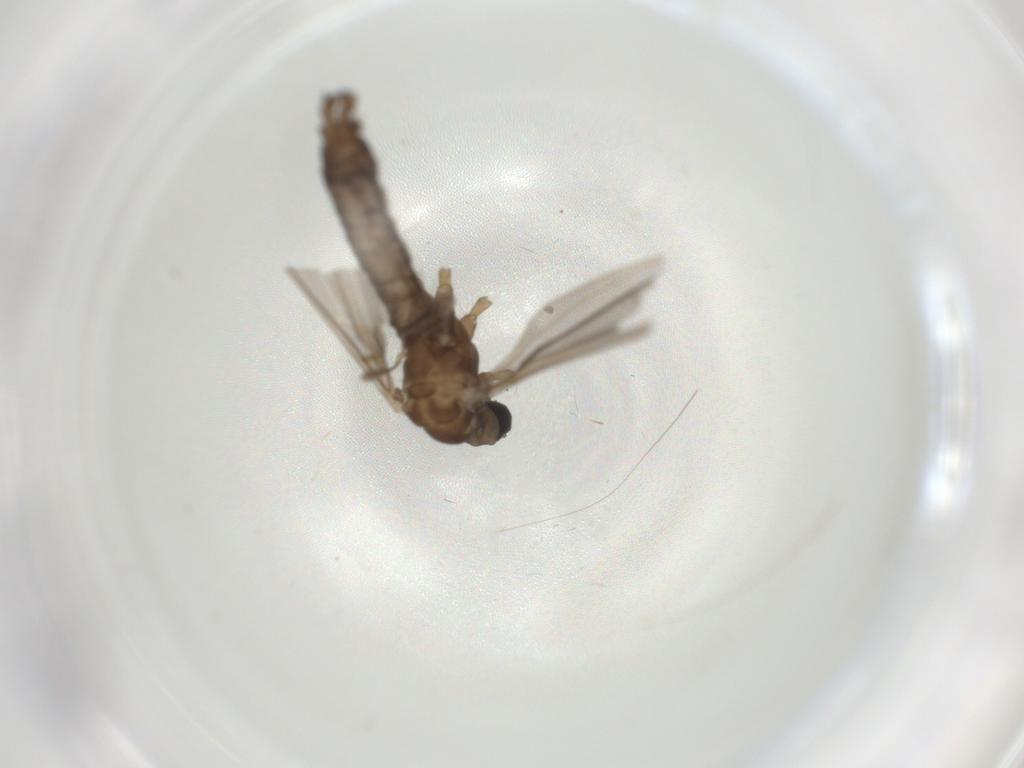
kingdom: Animalia
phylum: Arthropoda
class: Insecta
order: Diptera
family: Limoniidae
